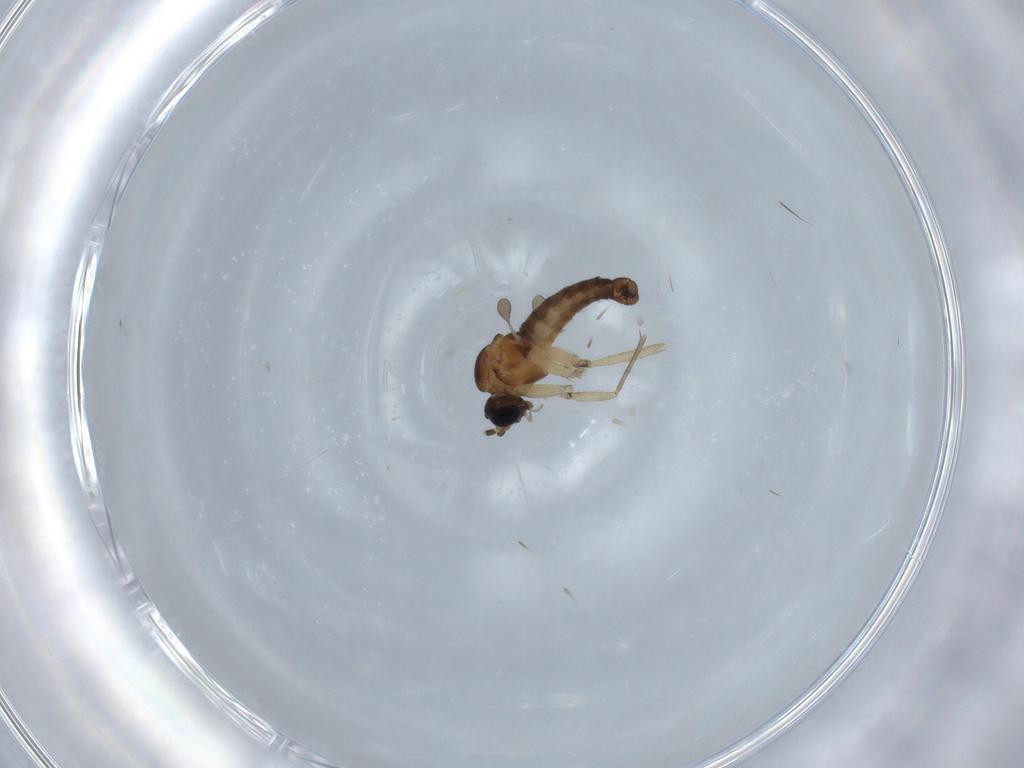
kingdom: Animalia
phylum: Arthropoda
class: Insecta
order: Diptera
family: Sciaridae
